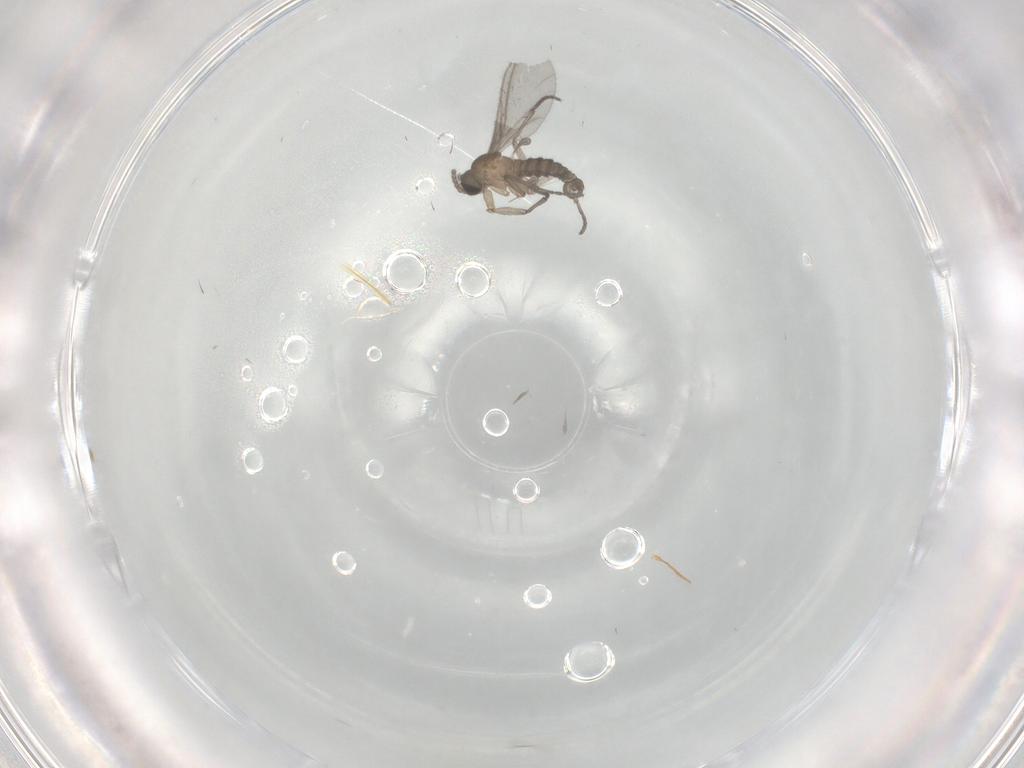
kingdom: Animalia
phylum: Arthropoda
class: Insecta
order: Diptera
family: Sciaridae
